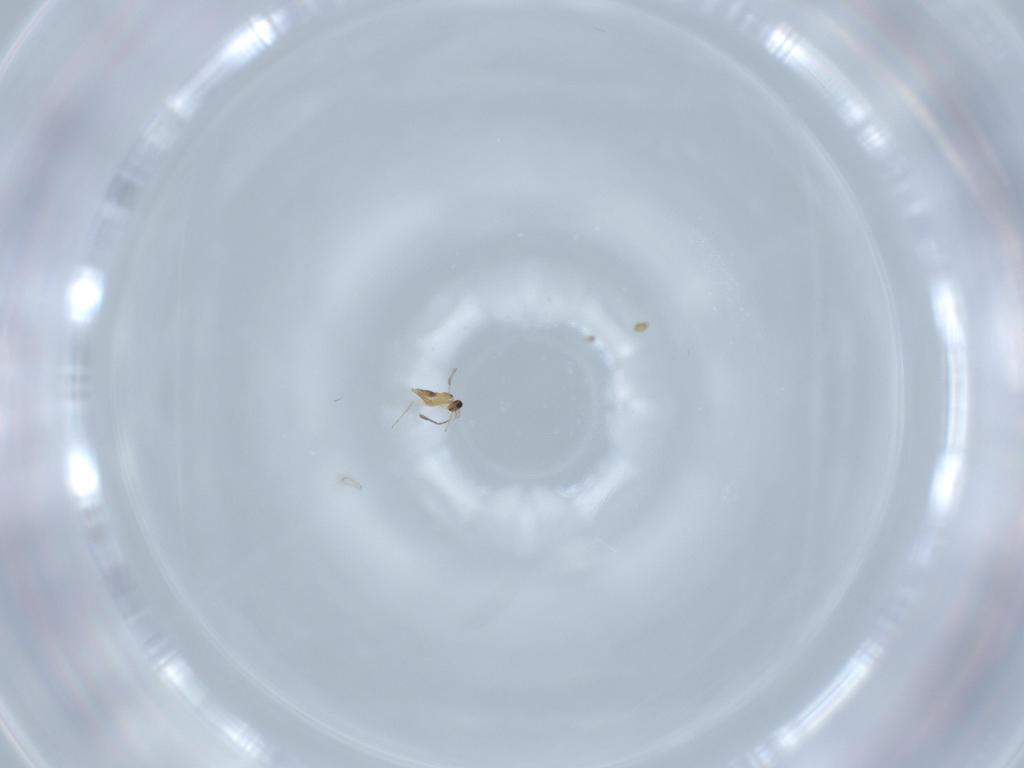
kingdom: Animalia
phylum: Arthropoda
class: Insecta
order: Hymenoptera
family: Mymaridae
